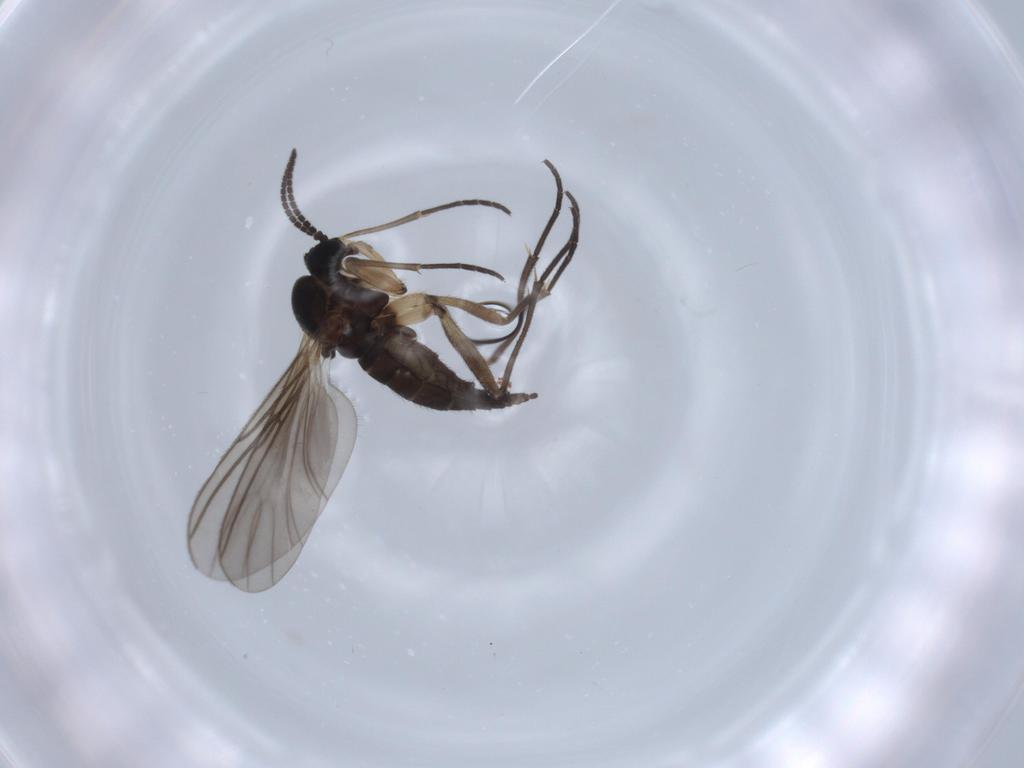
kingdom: Animalia
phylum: Arthropoda
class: Insecta
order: Diptera
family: Sciaridae
